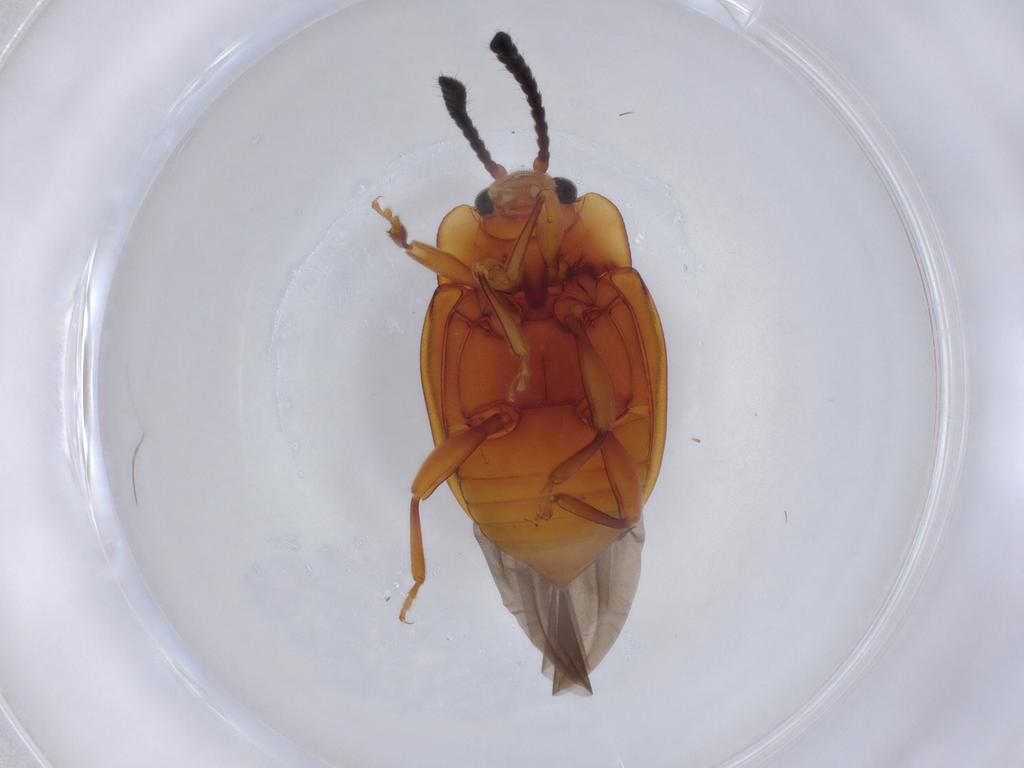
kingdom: Animalia
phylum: Arthropoda
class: Insecta
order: Coleoptera
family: Endomychidae
